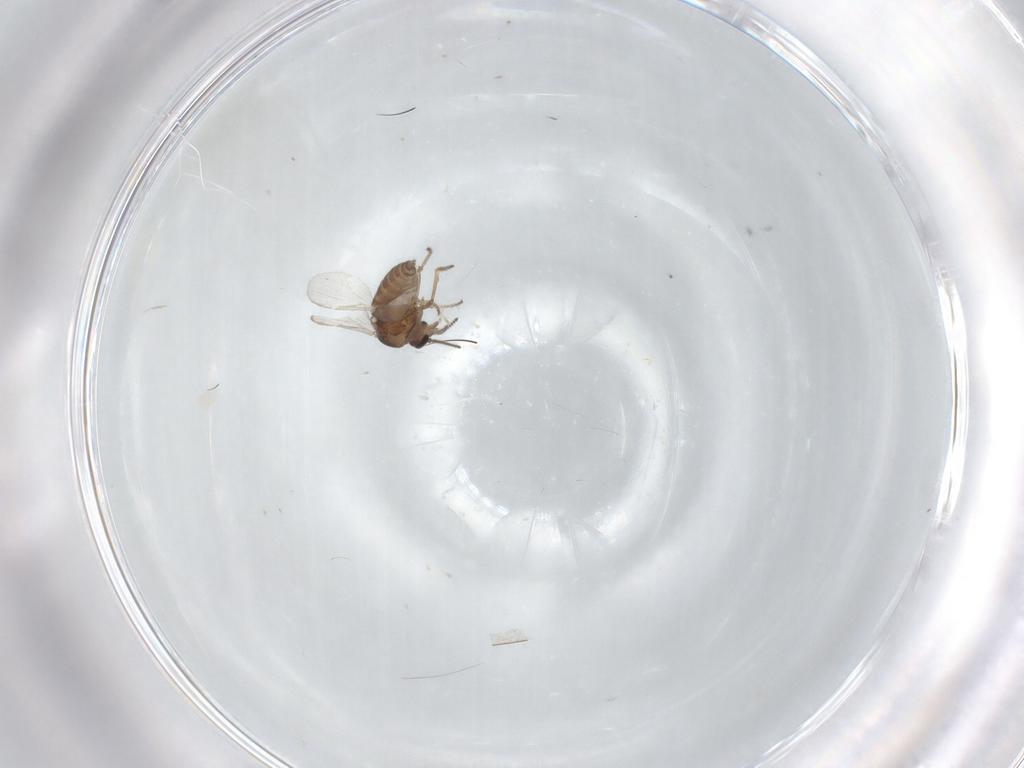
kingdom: Animalia
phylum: Arthropoda
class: Insecta
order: Diptera
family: Ceratopogonidae
